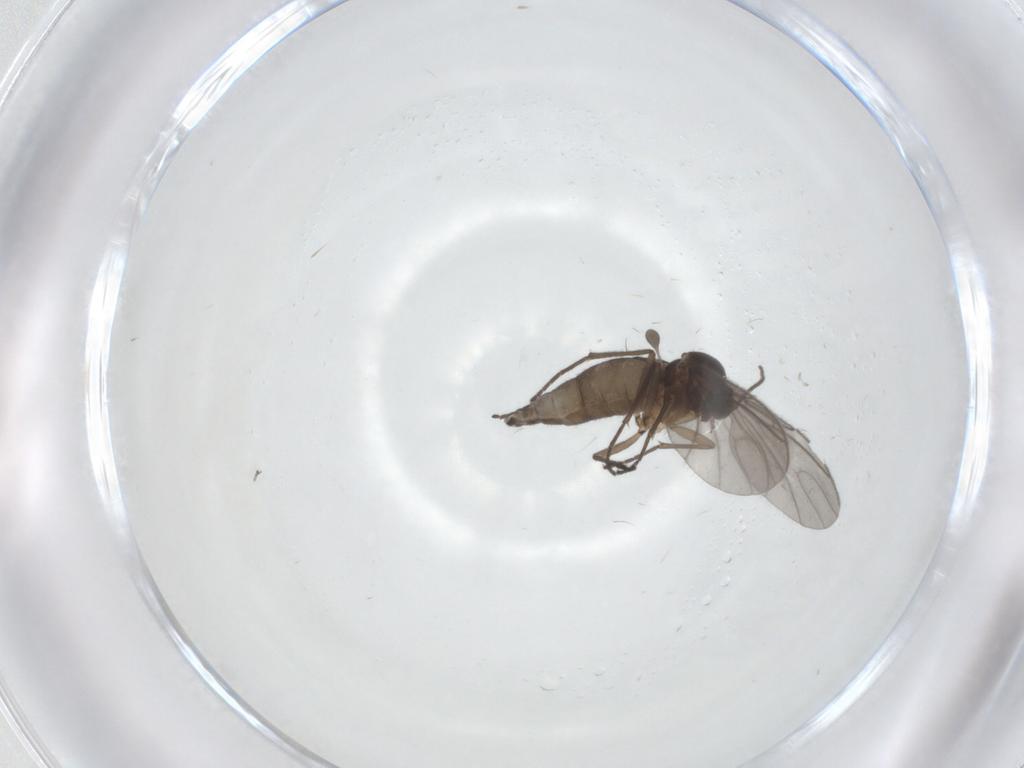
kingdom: Animalia
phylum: Arthropoda
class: Insecta
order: Diptera
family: Sciaridae
